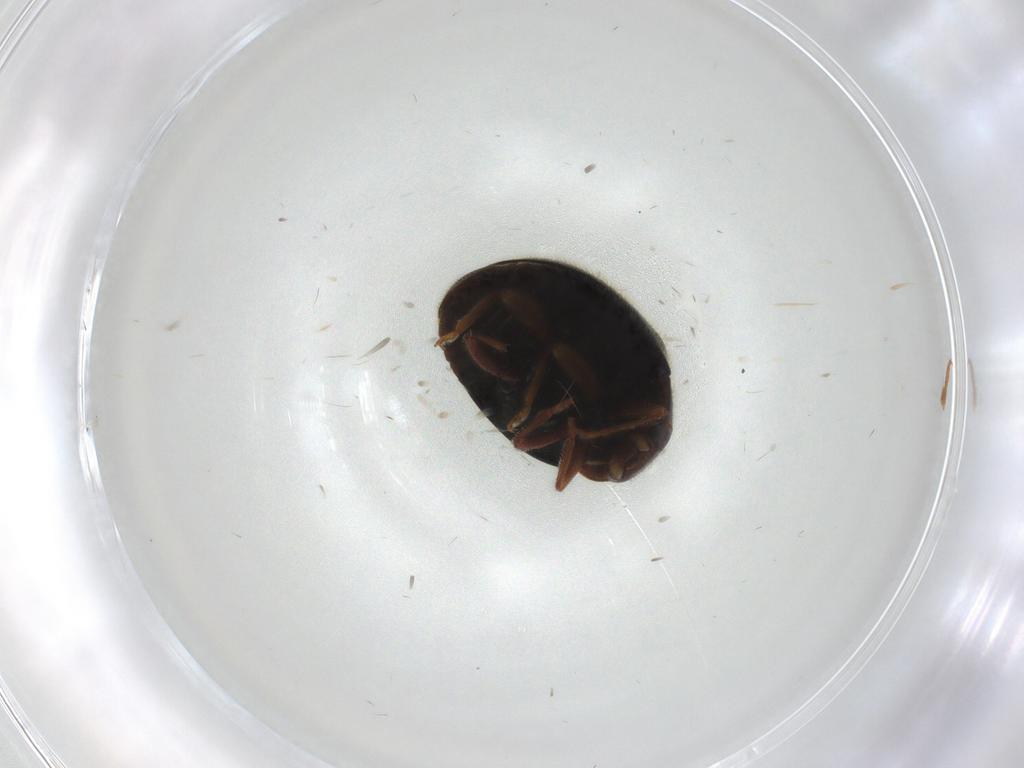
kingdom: Animalia
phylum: Arthropoda
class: Insecta
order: Coleoptera
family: Coccinellidae
